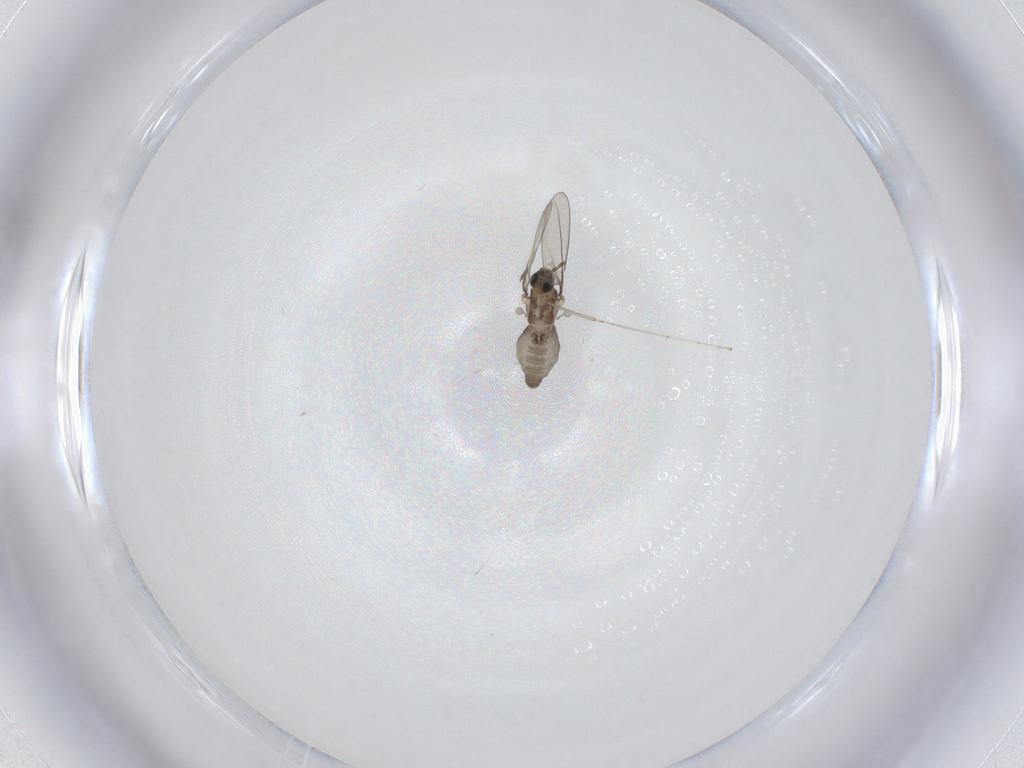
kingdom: Animalia
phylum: Arthropoda
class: Insecta
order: Diptera
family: Cecidomyiidae
